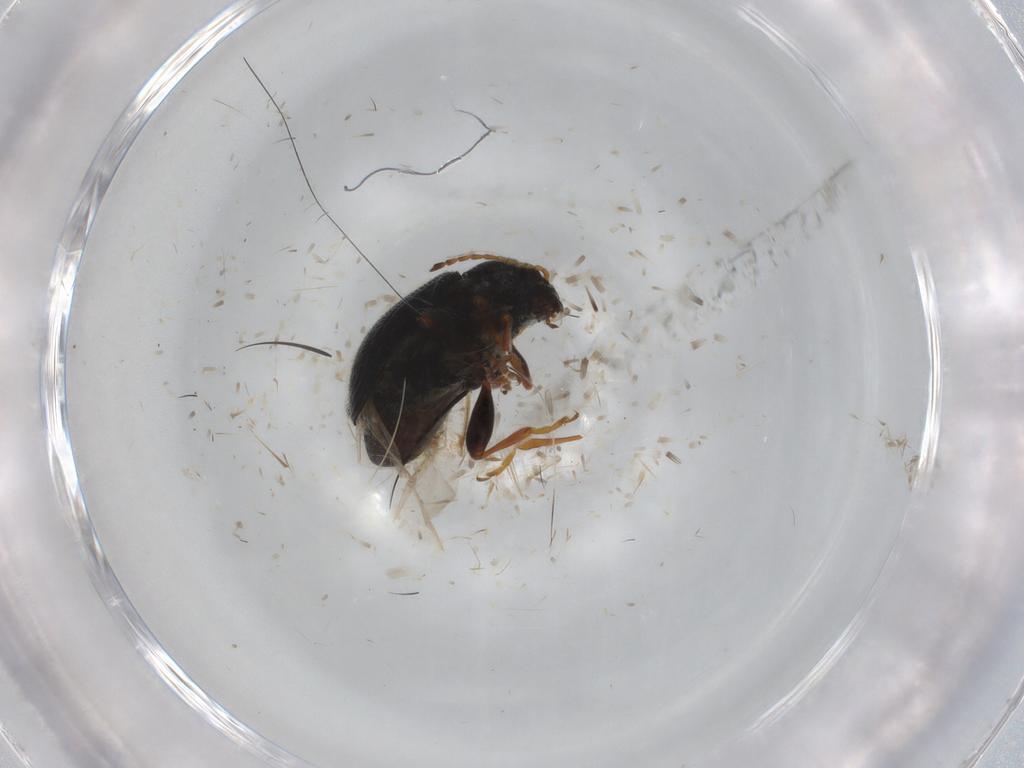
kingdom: Animalia
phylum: Arthropoda
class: Insecta
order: Coleoptera
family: Chrysomelidae
